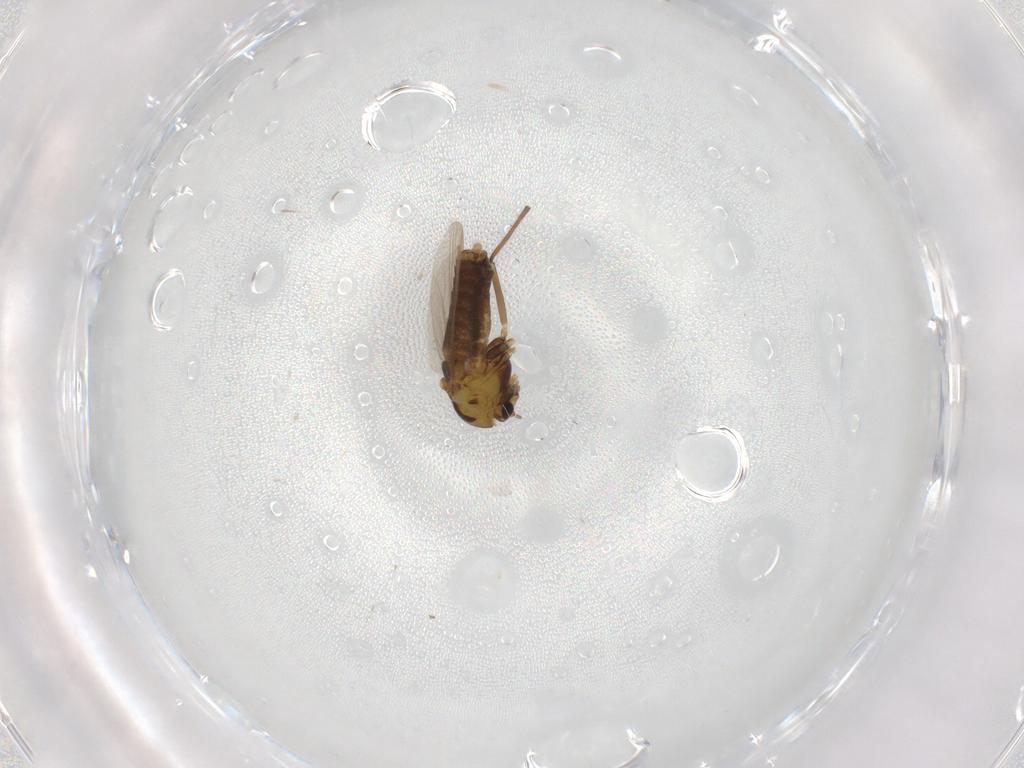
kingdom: Animalia
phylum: Arthropoda
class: Insecta
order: Diptera
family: Chironomidae
